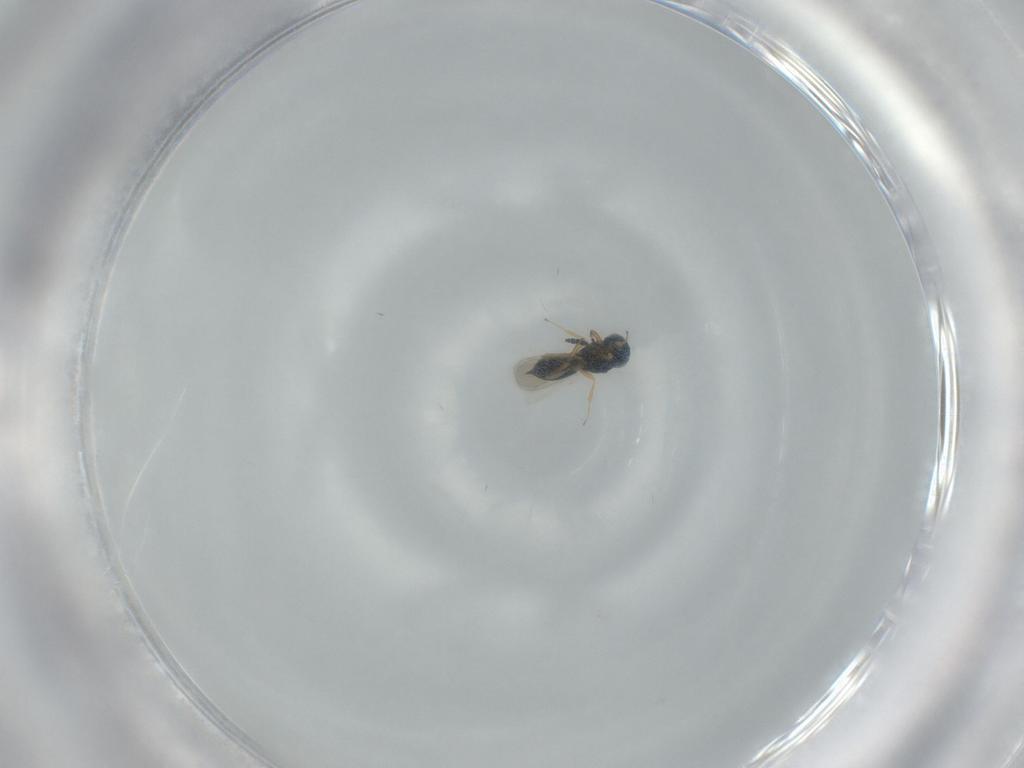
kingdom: Animalia
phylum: Arthropoda
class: Insecta
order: Hymenoptera
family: Scelionidae
